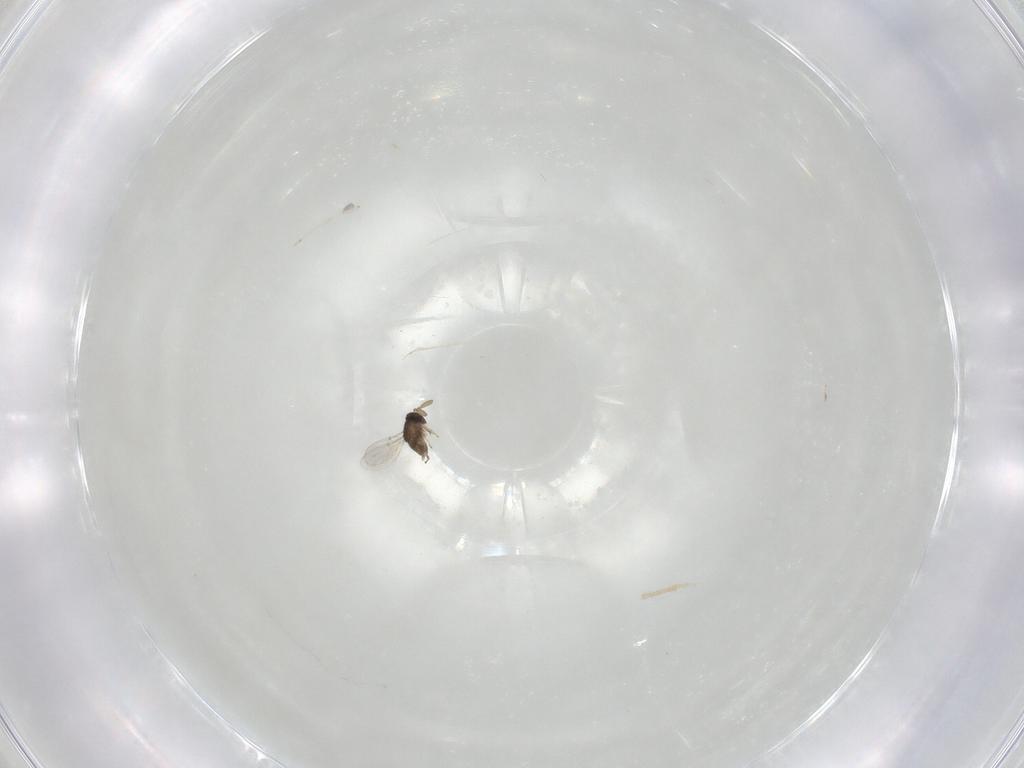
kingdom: Animalia
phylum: Arthropoda
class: Insecta
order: Hymenoptera
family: Encyrtidae
